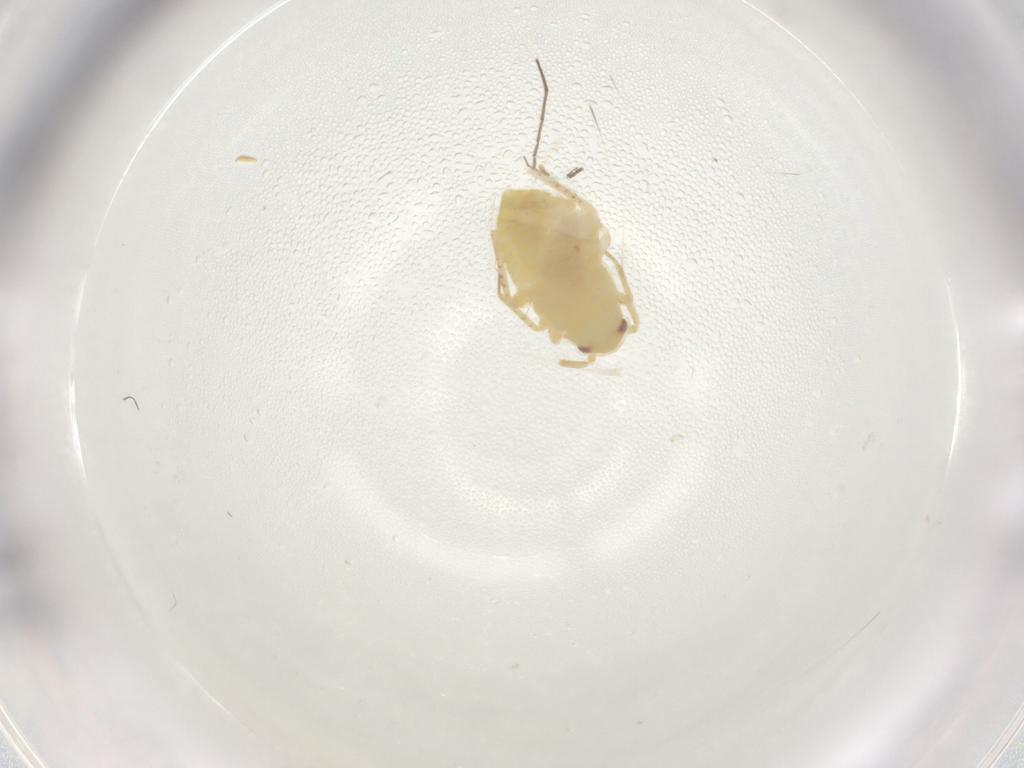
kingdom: Animalia
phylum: Arthropoda
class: Insecta
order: Diptera
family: Chironomidae
